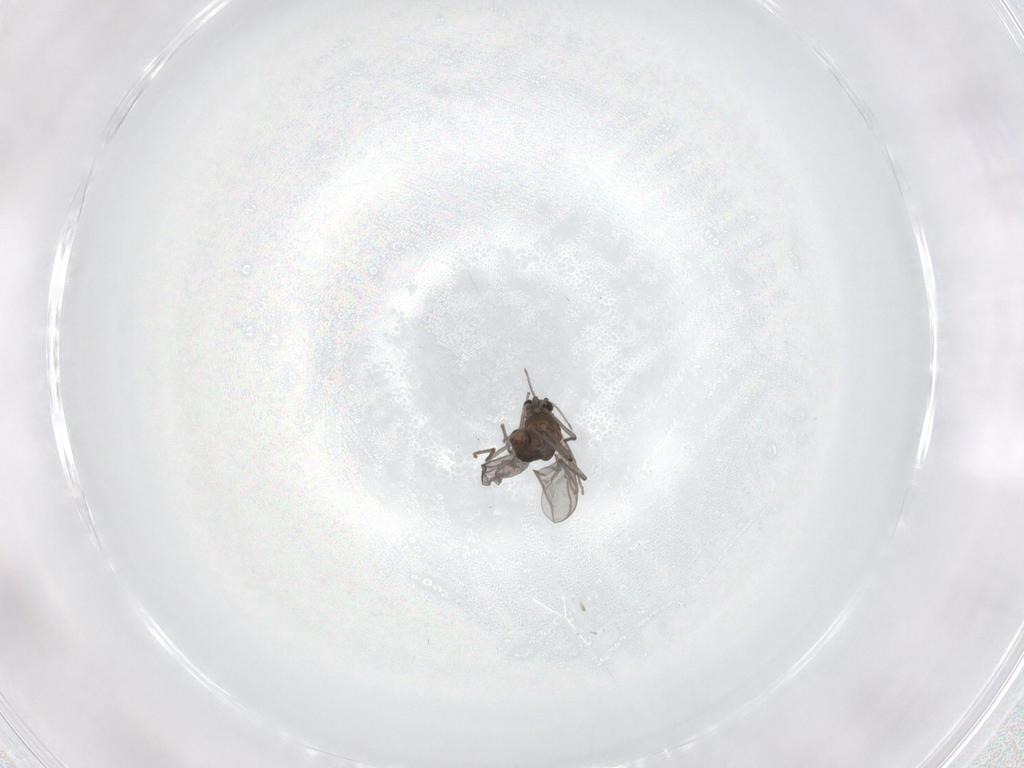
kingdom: Animalia
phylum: Arthropoda
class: Insecta
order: Diptera
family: Chironomidae
